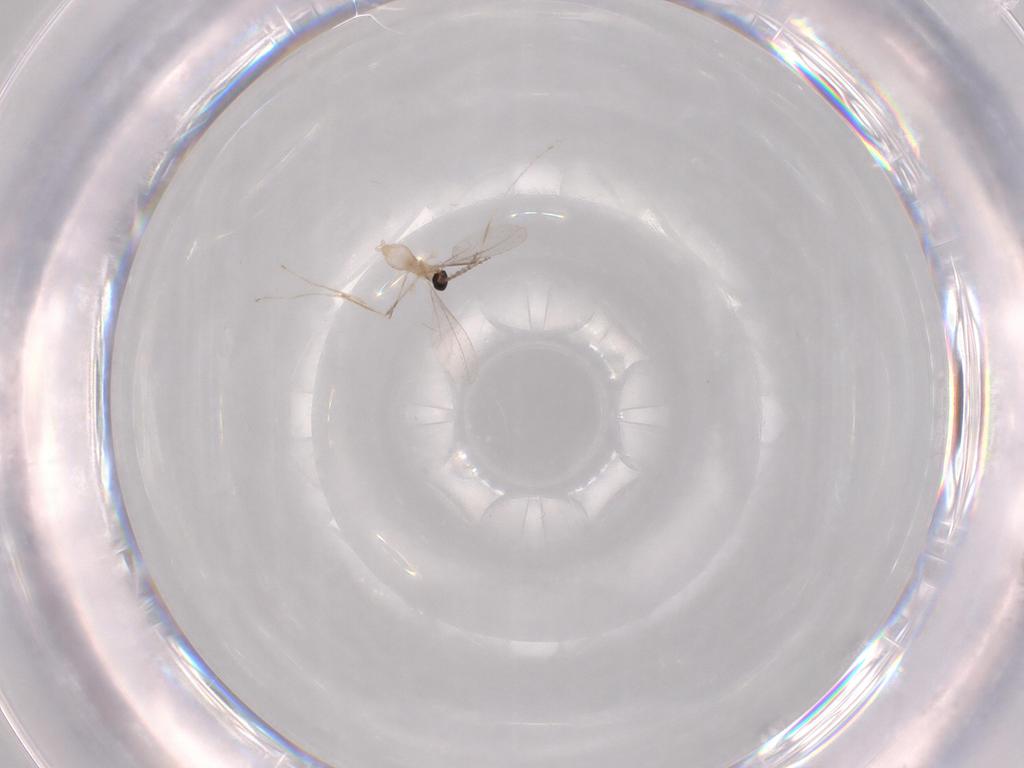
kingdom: Animalia
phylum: Arthropoda
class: Insecta
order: Diptera
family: Cecidomyiidae
